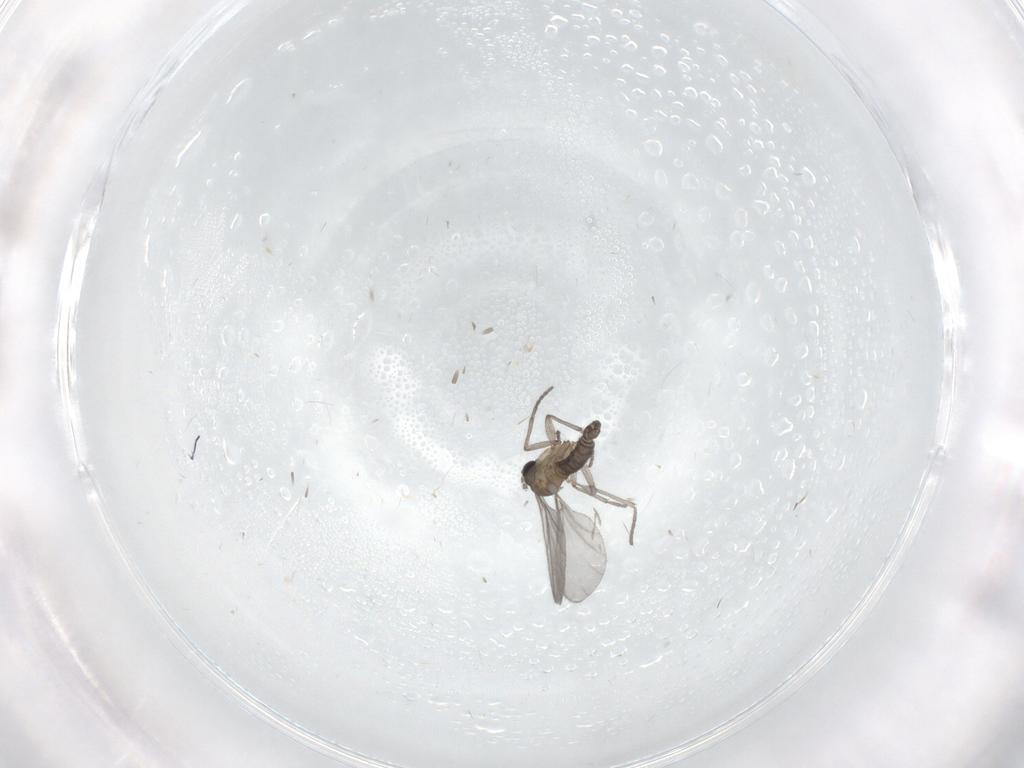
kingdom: Animalia
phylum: Arthropoda
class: Insecta
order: Diptera
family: Sciaridae
